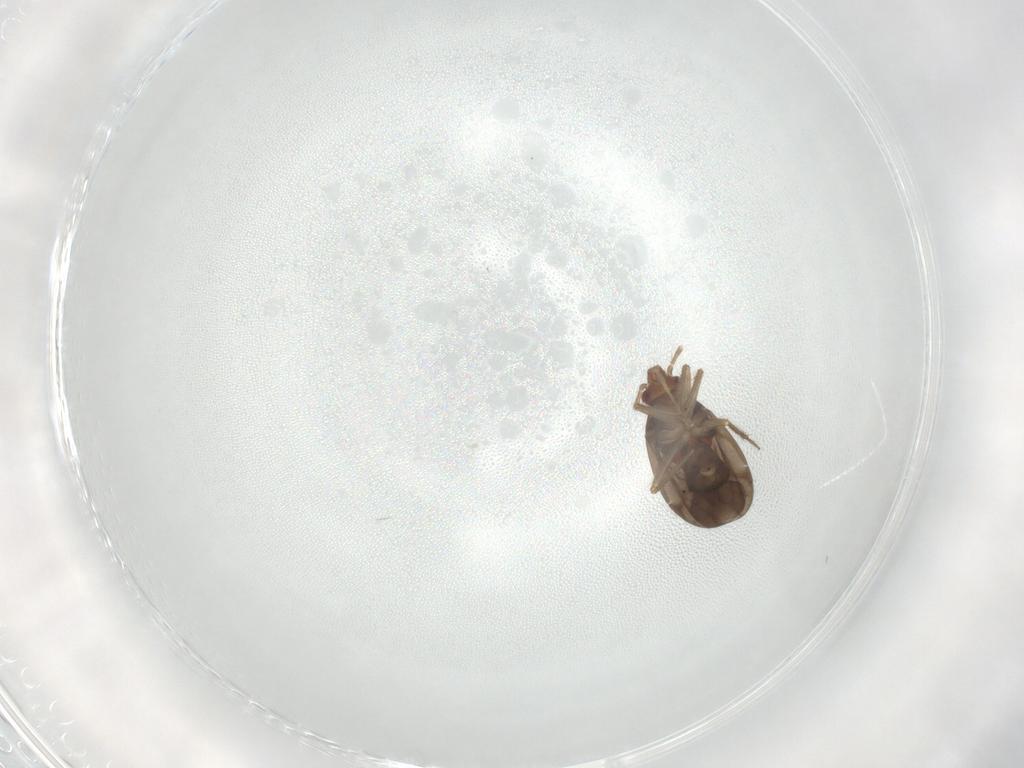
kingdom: Animalia
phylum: Arthropoda
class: Insecta
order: Hemiptera
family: Ceratocombidae
